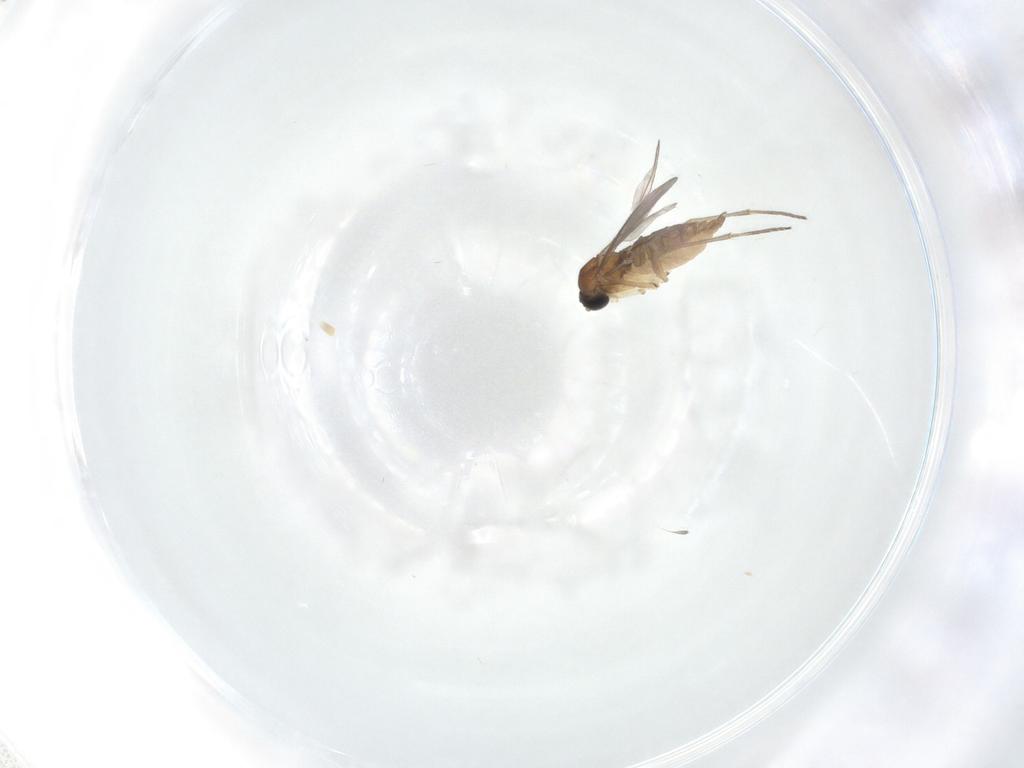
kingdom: Animalia
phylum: Arthropoda
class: Insecta
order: Diptera
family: Sciaridae
